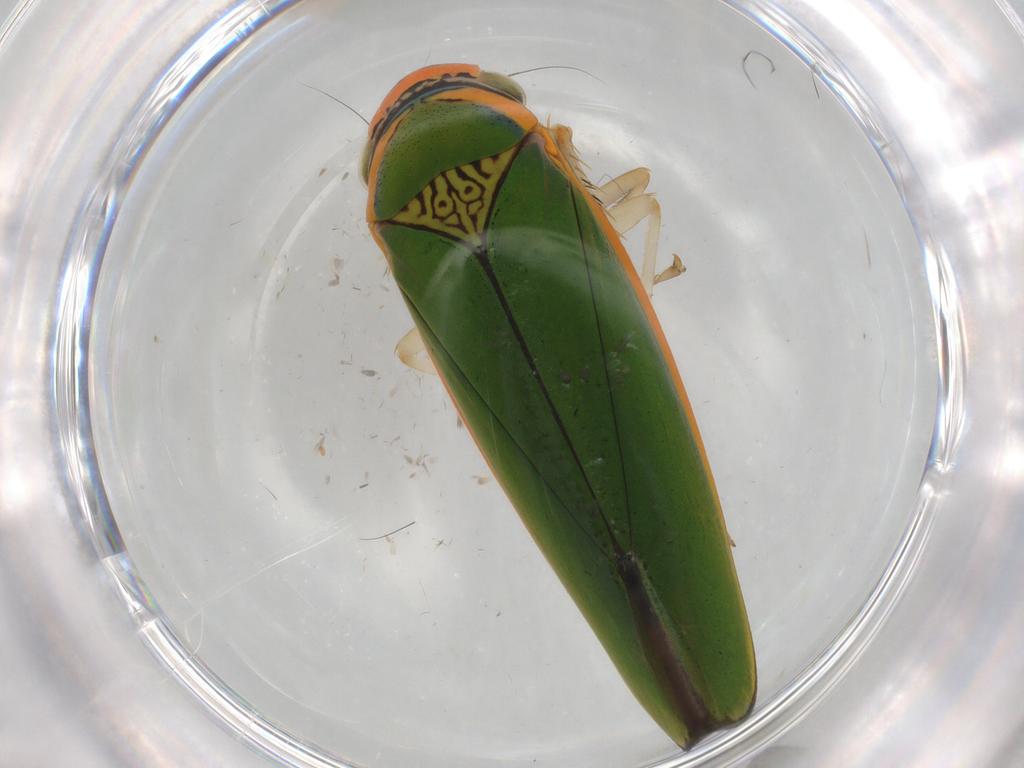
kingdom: Animalia
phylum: Arthropoda
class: Insecta
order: Hemiptera
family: Cicadellidae
